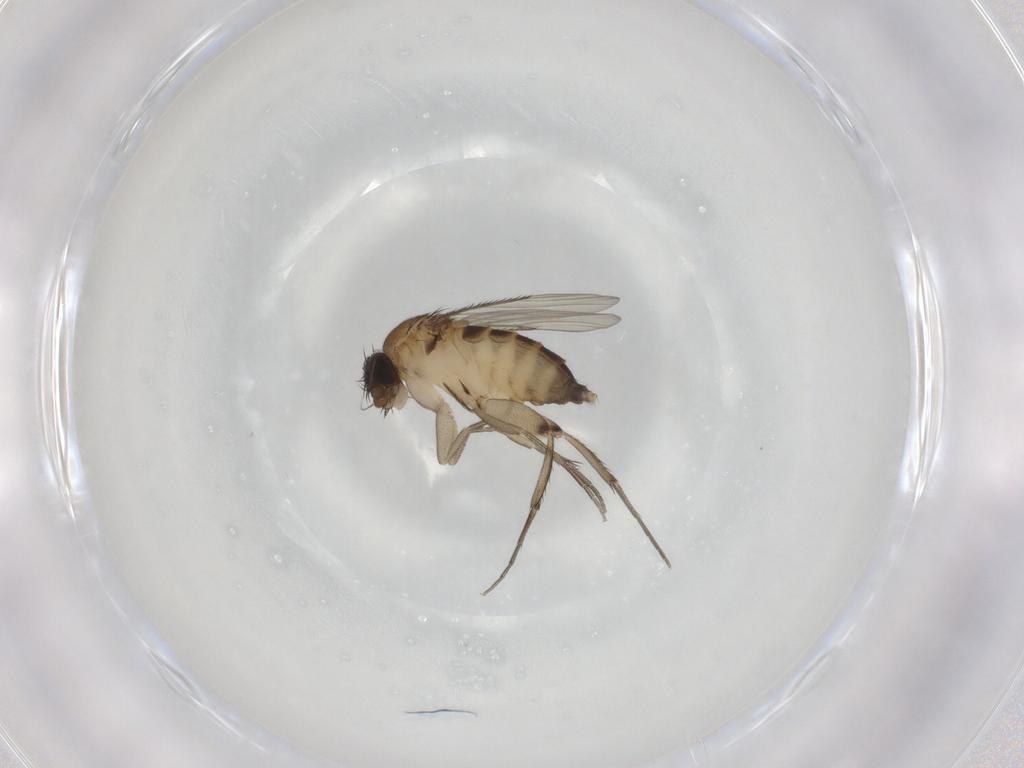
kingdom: Animalia
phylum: Arthropoda
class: Insecta
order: Diptera
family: Phoridae
